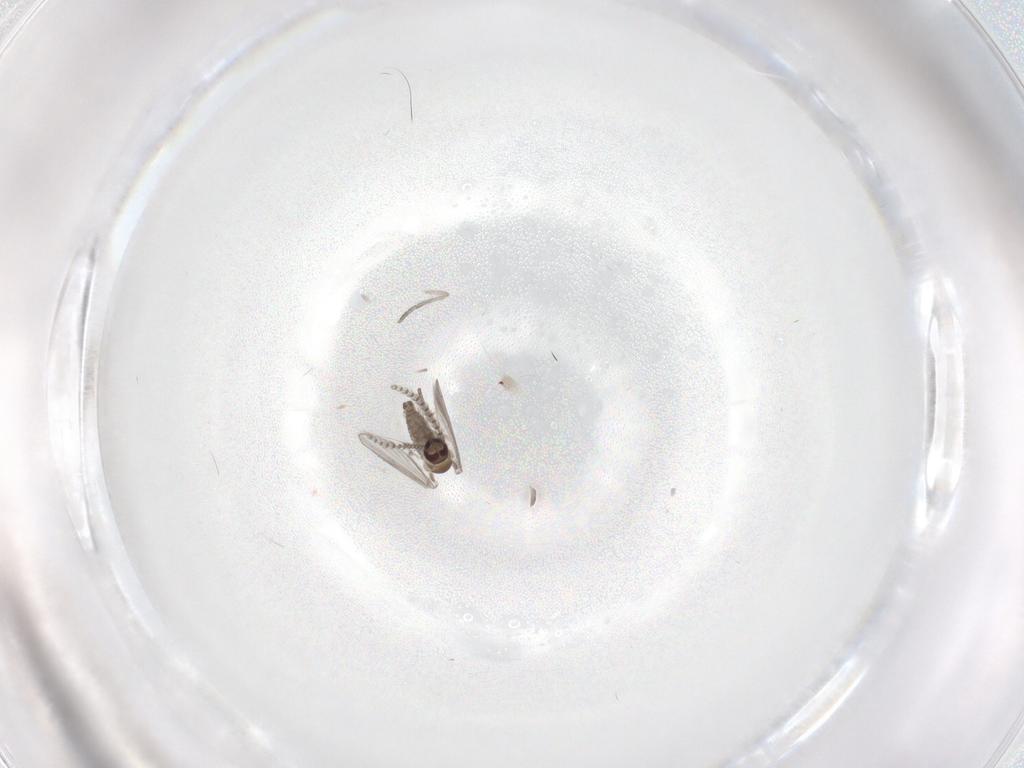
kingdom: Animalia
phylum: Arthropoda
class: Insecta
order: Diptera
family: Psychodidae
